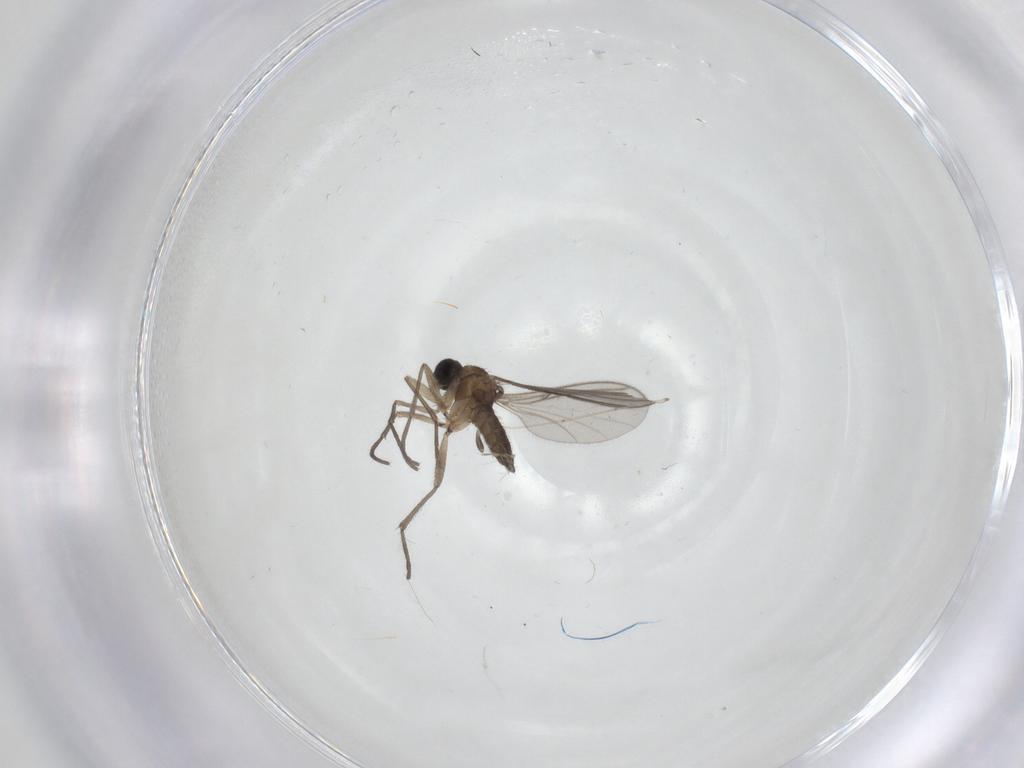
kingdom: Animalia
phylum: Arthropoda
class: Insecta
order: Diptera
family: Sciaridae
